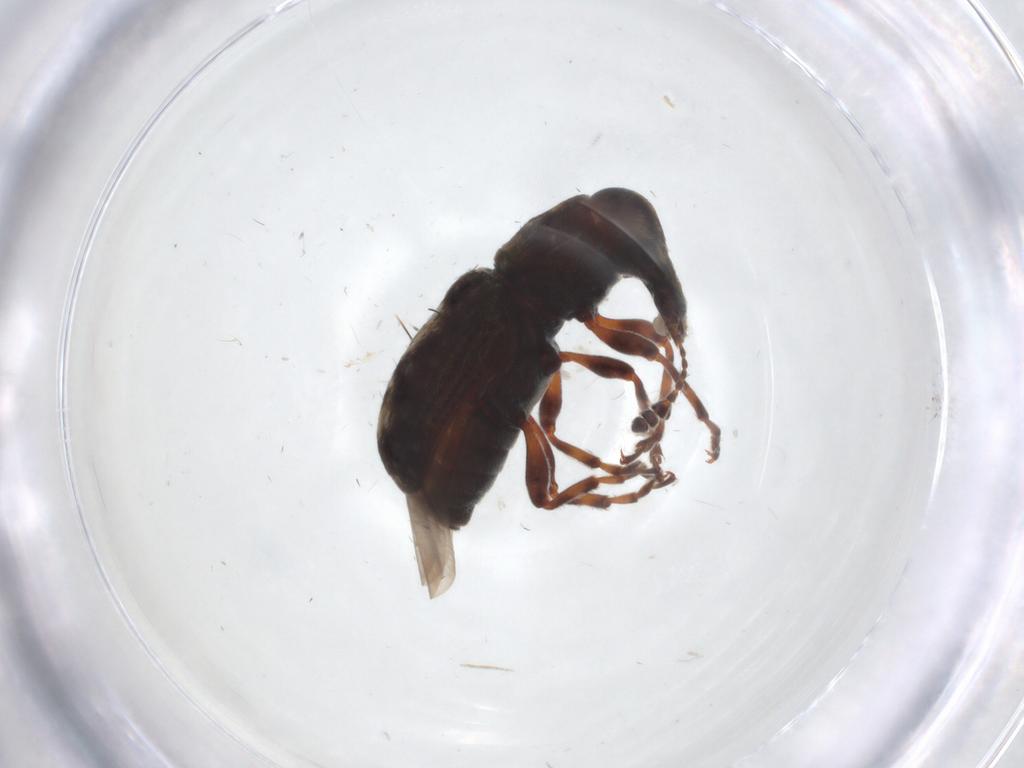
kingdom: Animalia
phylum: Arthropoda
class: Insecta
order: Coleoptera
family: Anthribidae
